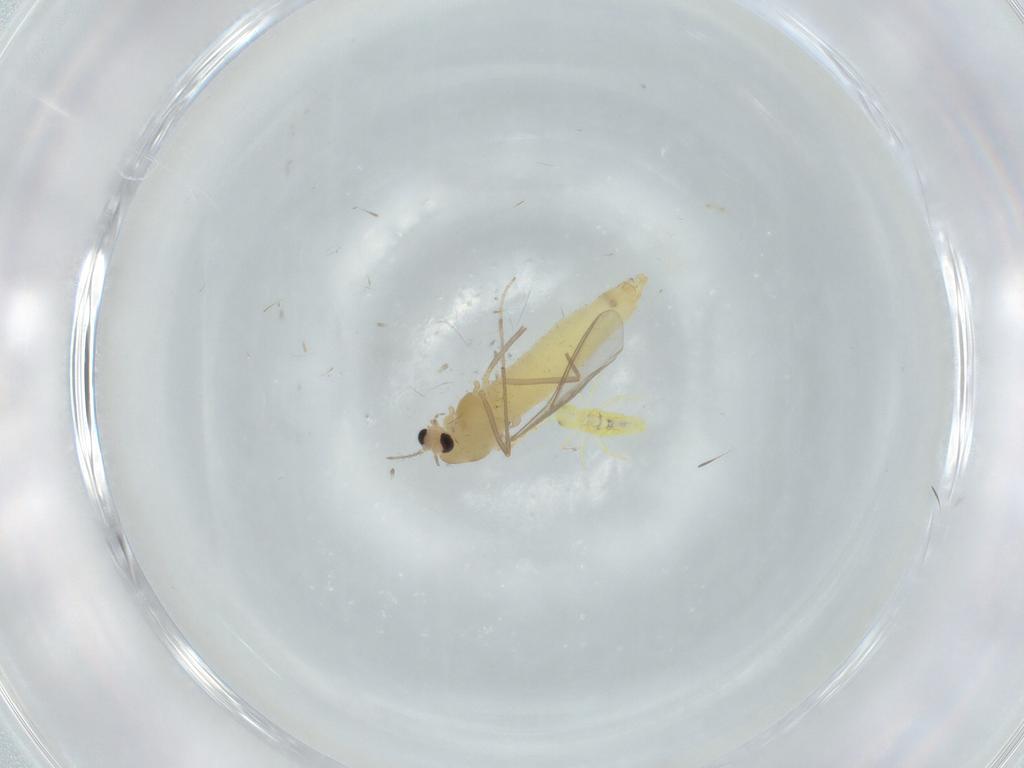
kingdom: Animalia
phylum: Arthropoda
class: Insecta
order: Diptera
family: Chironomidae
